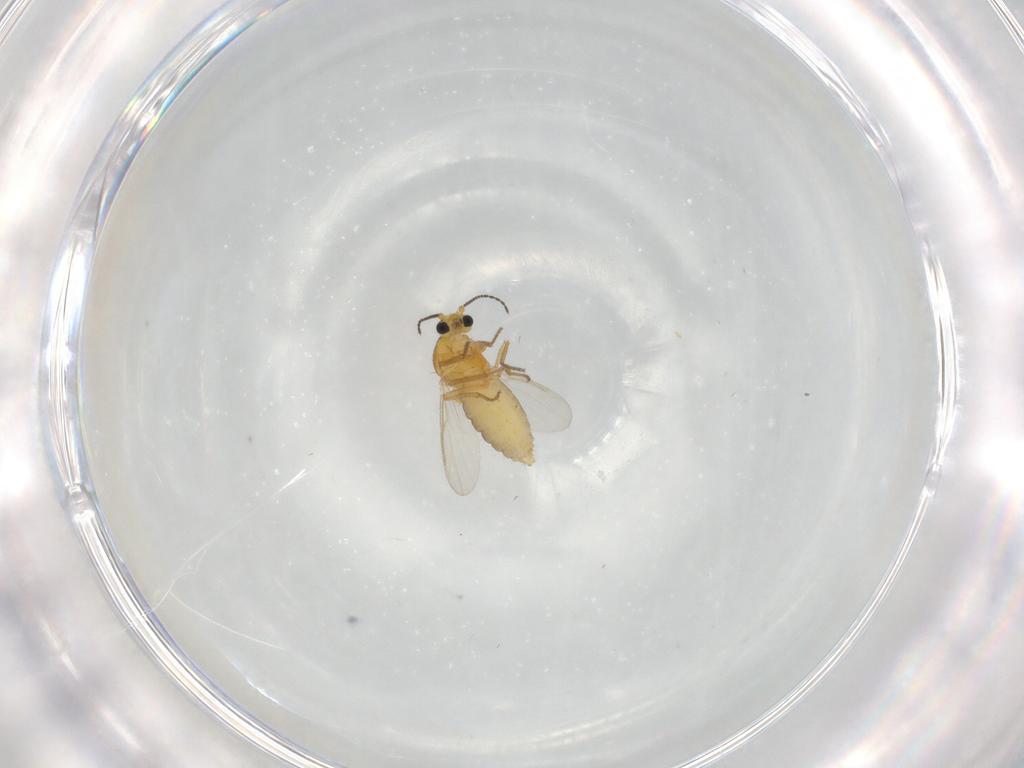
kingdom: Animalia
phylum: Arthropoda
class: Insecta
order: Diptera
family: Ceratopogonidae
